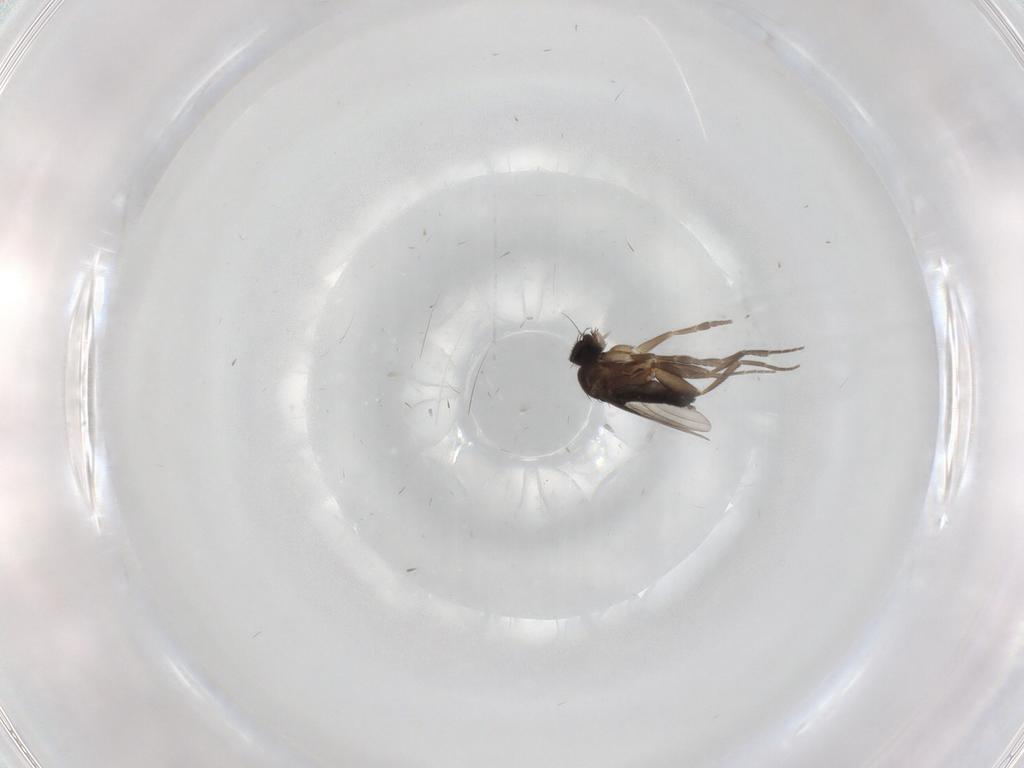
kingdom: Animalia
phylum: Arthropoda
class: Insecta
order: Diptera
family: Phoridae
